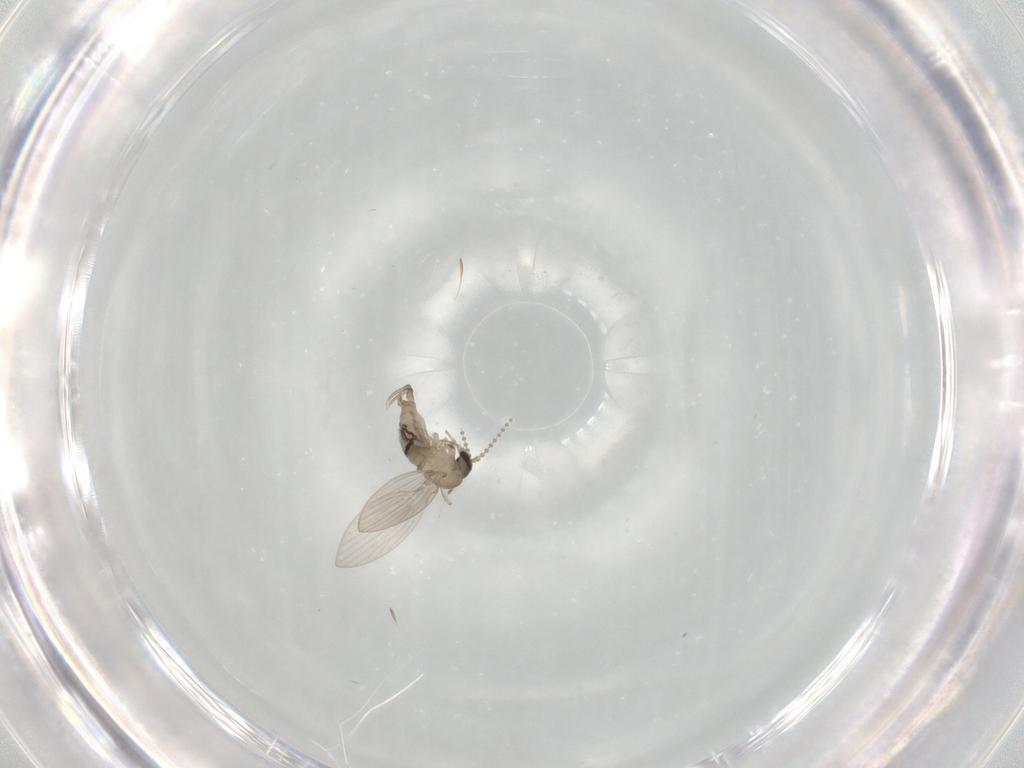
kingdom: Animalia
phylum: Arthropoda
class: Insecta
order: Diptera
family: Psychodidae
